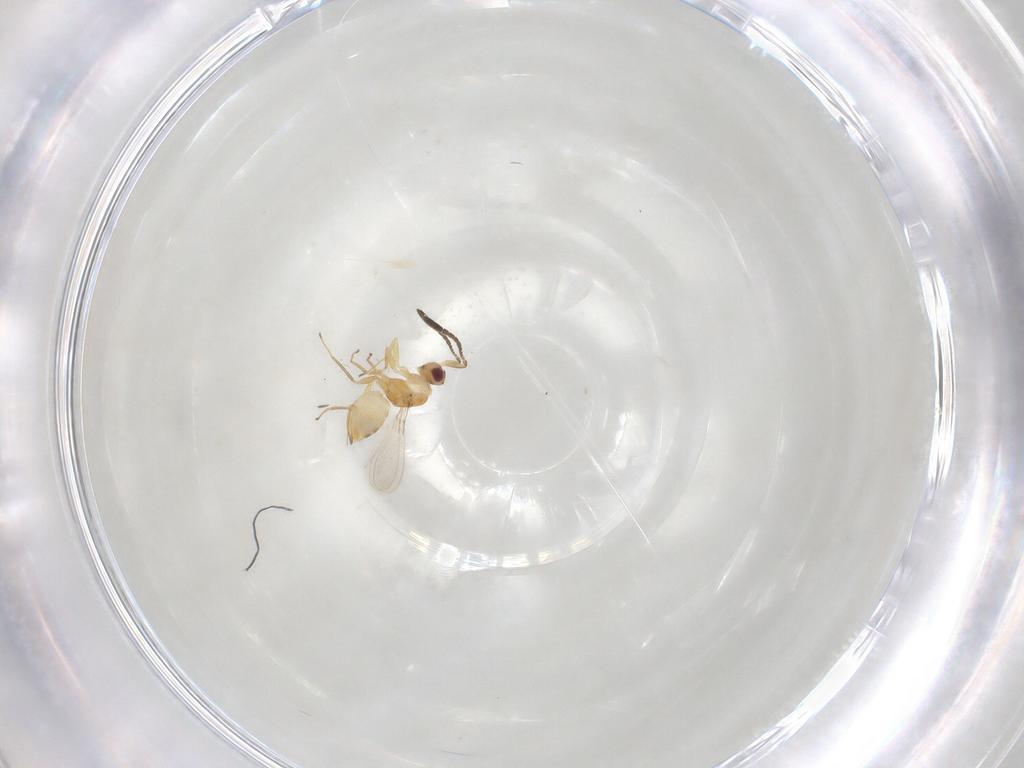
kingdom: Animalia
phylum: Arthropoda
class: Insecta
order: Hymenoptera
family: Mymaridae
